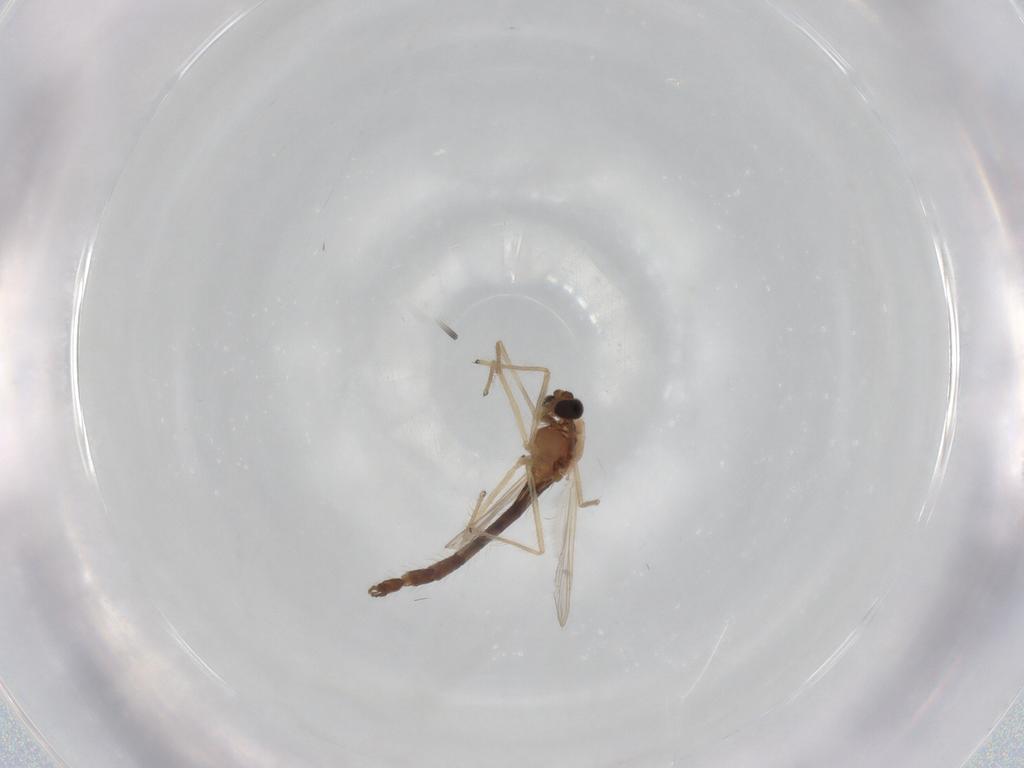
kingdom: Animalia
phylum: Arthropoda
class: Insecta
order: Diptera
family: Chironomidae
